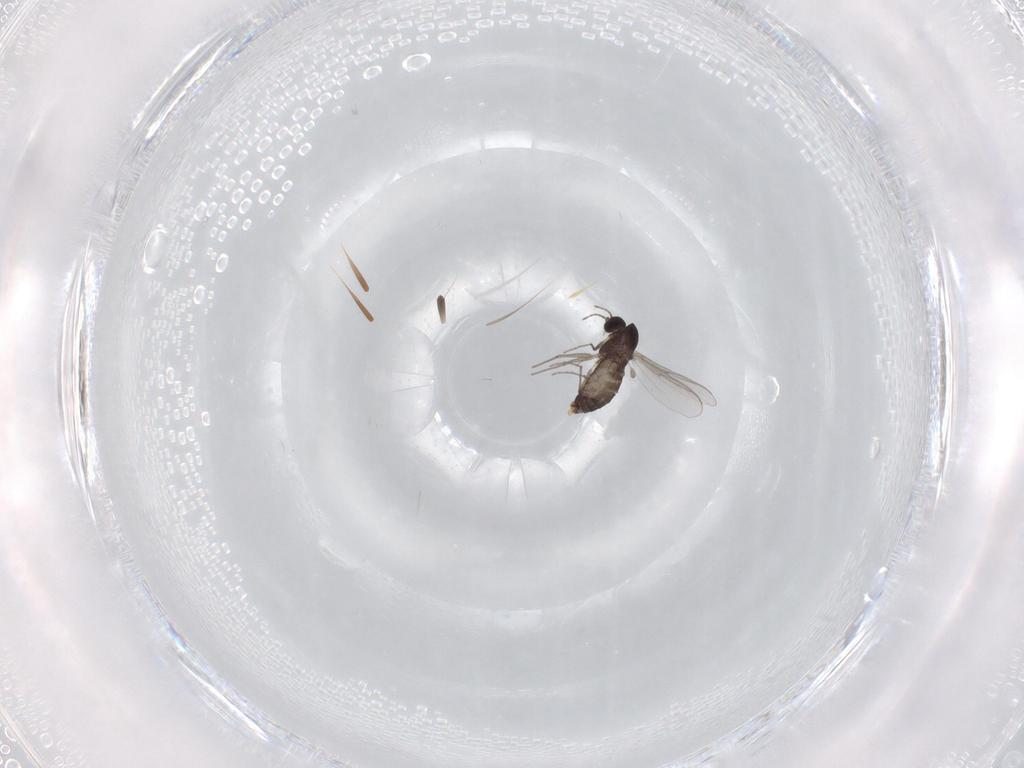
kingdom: Animalia
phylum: Arthropoda
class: Insecta
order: Diptera
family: Chironomidae
